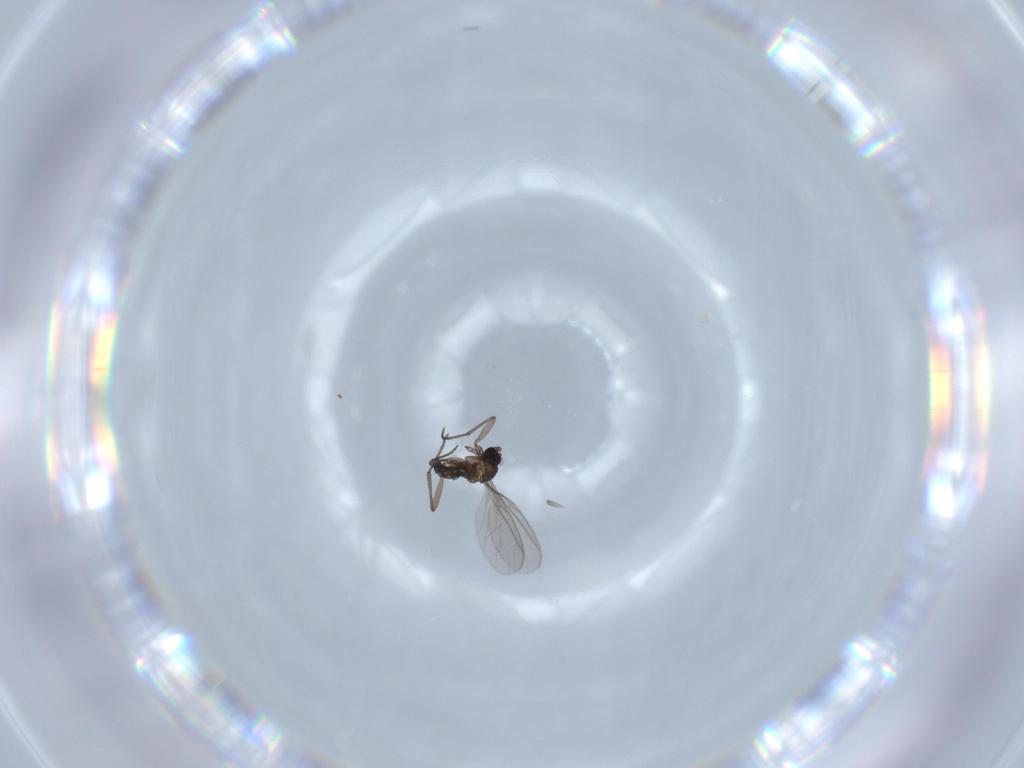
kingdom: Animalia
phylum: Arthropoda
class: Insecta
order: Diptera
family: Sciaridae
